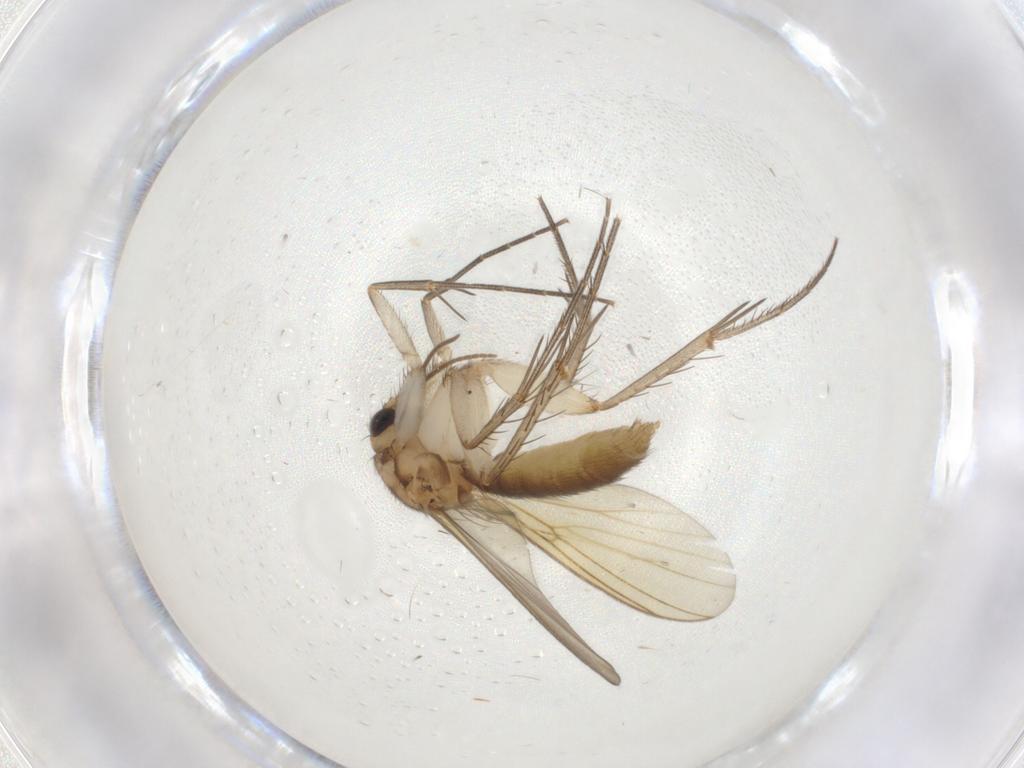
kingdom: Animalia
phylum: Arthropoda
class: Insecta
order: Diptera
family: Mycetophilidae
